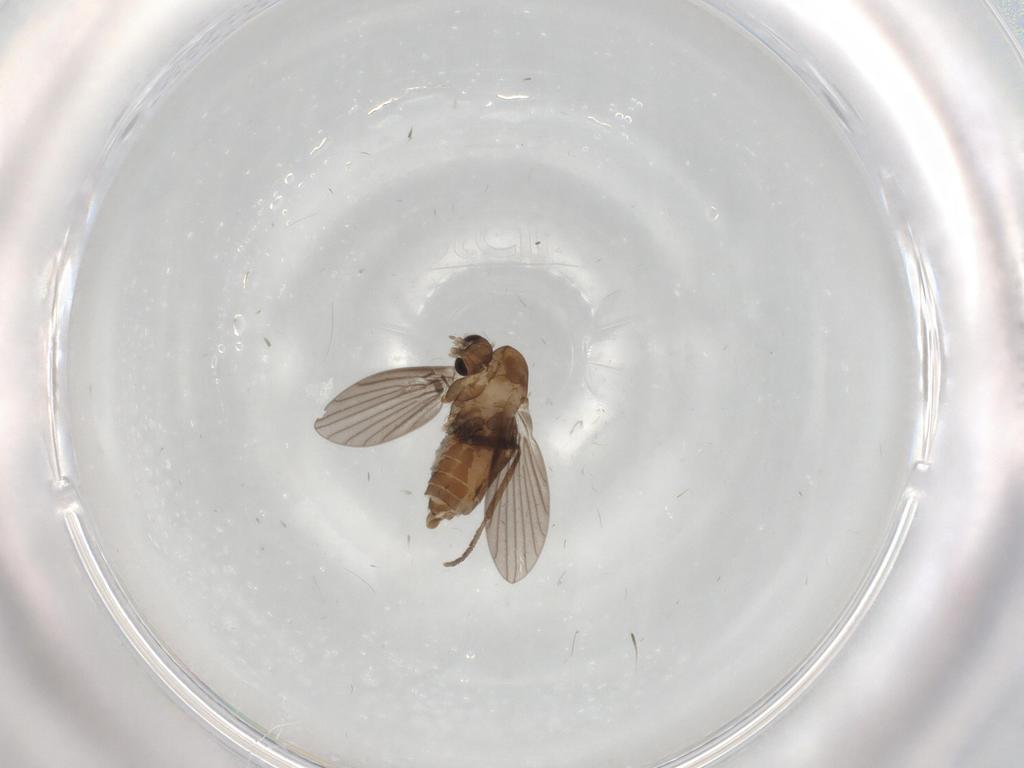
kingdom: Animalia
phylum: Arthropoda
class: Insecta
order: Diptera
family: Psychodidae
